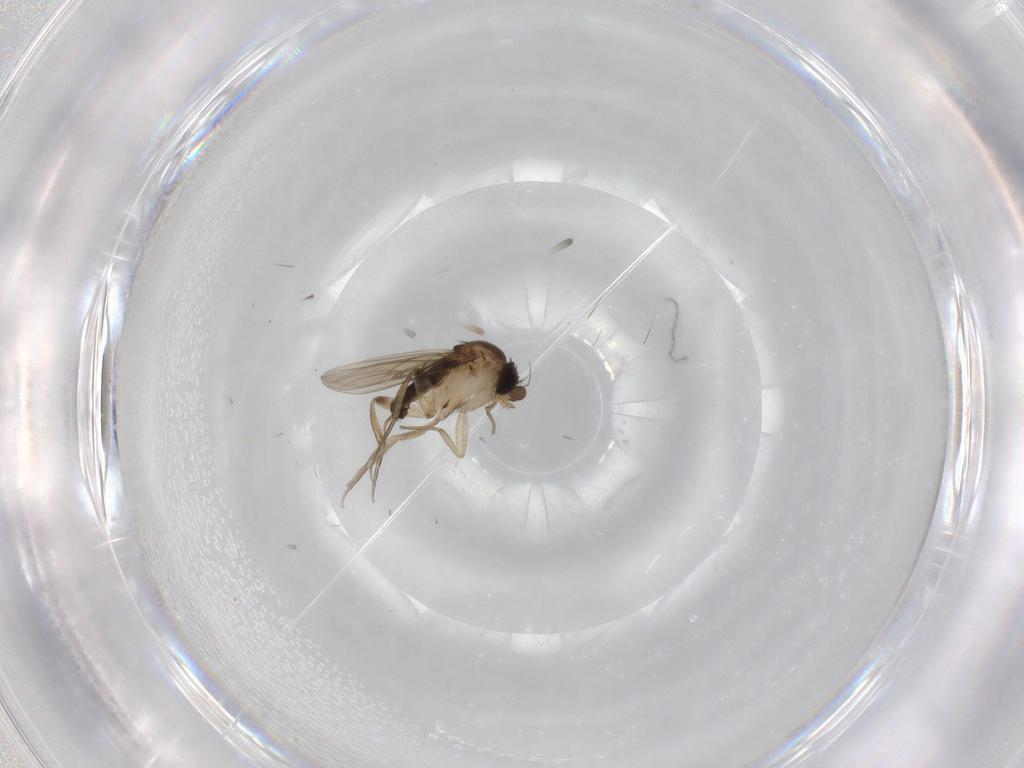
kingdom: Animalia
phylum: Arthropoda
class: Insecta
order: Diptera
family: Phoridae
